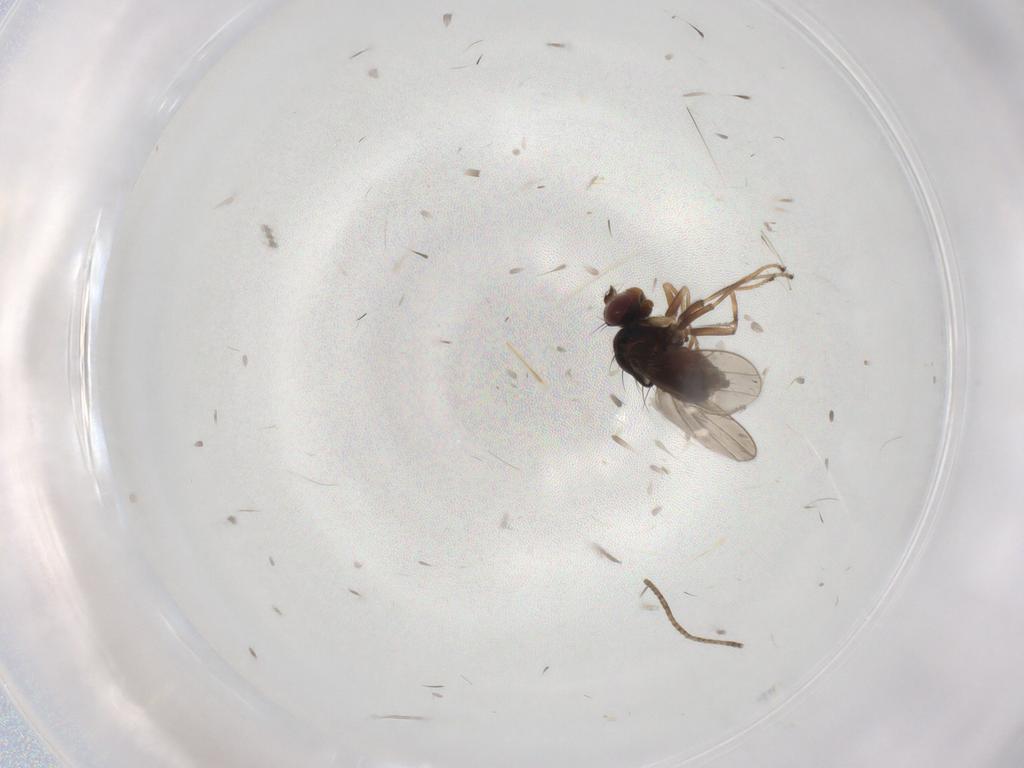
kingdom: Animalia
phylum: Arthropoda
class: Insecta
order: Diptera
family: Ephydridae
